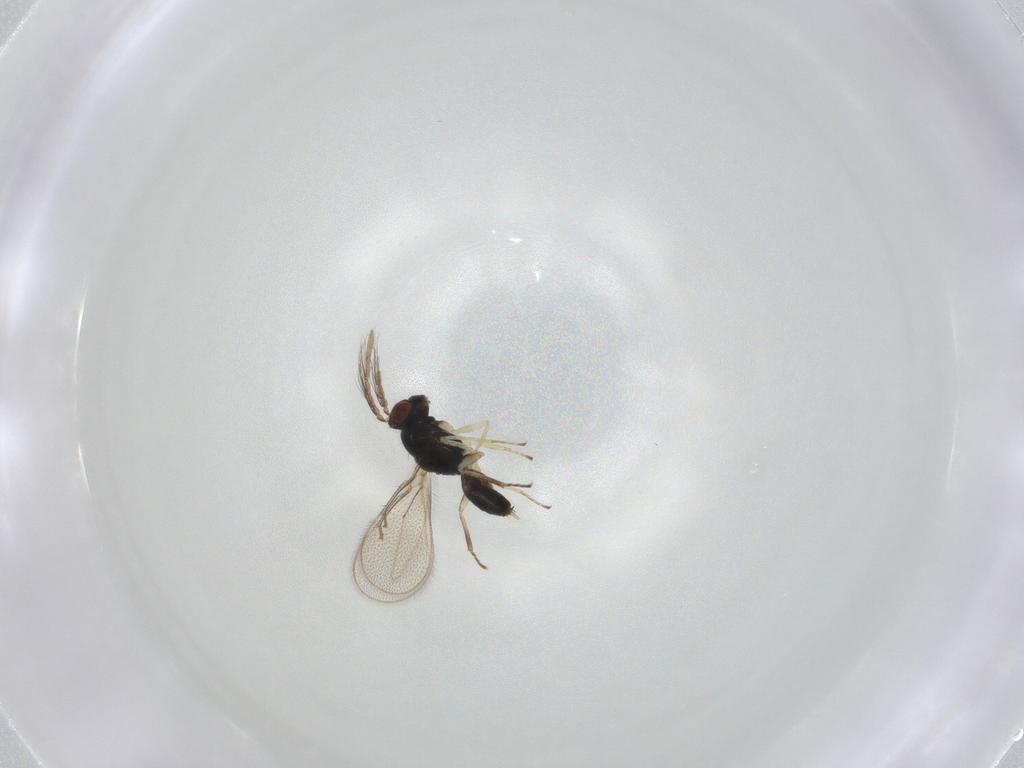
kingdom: Animalia
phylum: Arthropoda
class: Insecta
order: Hymenoptera
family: Eulophidae
